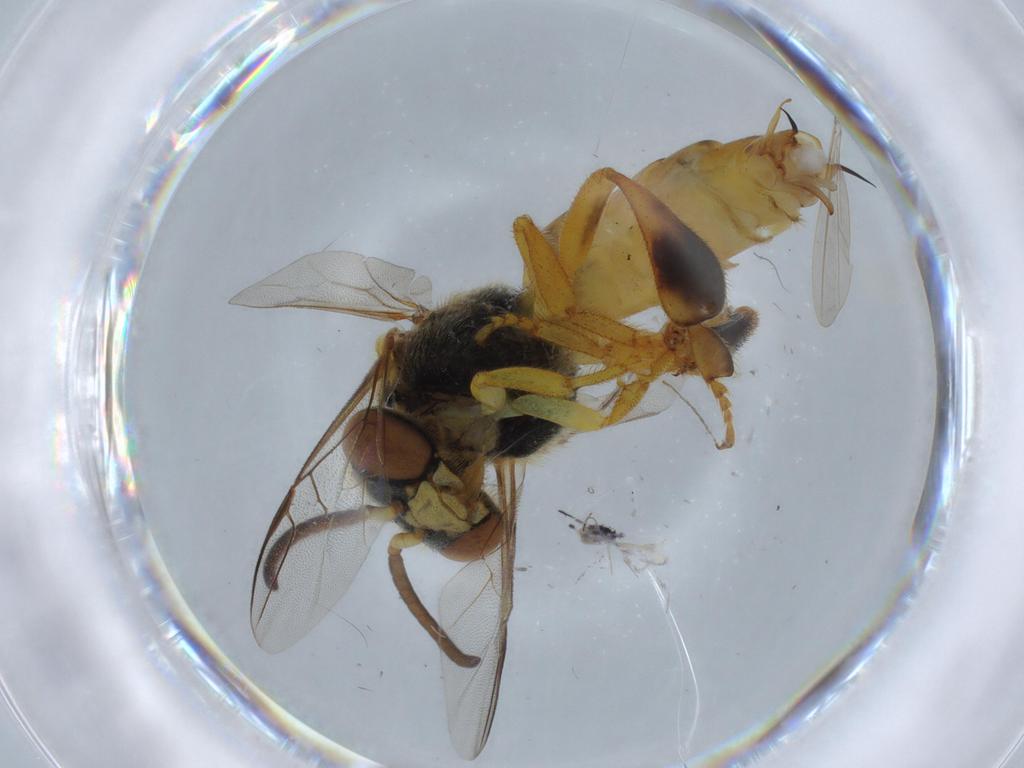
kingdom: Animalia
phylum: Arthropoda
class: Insecta
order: Hymenoptera
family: Apidae
